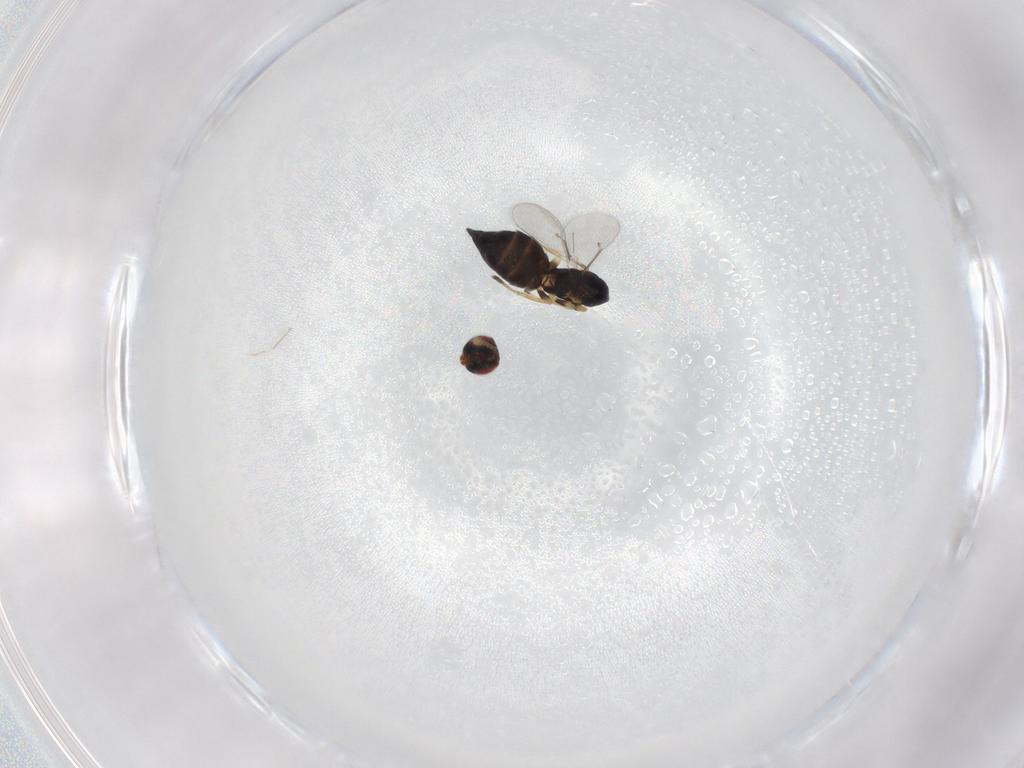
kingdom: Animalia
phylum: Arthropoda
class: Insecta
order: Hymenoptera
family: Eulophidae
